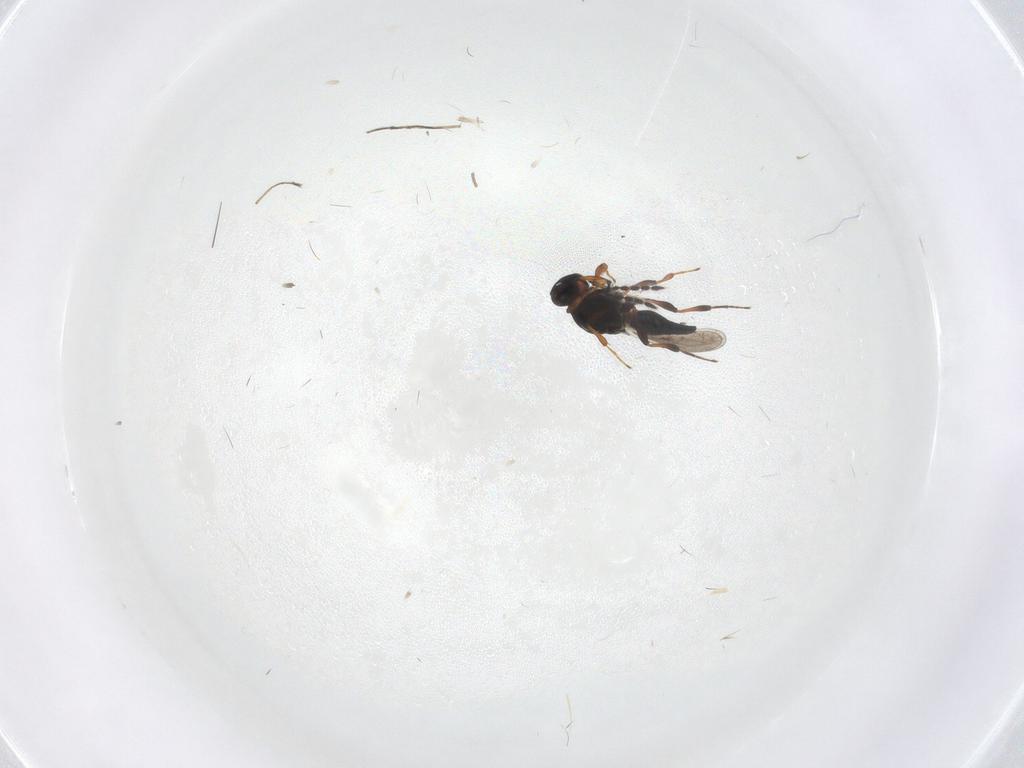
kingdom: Animalia
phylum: Arthropoda
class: Insecta
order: Hymenoptera
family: Platygastridae
